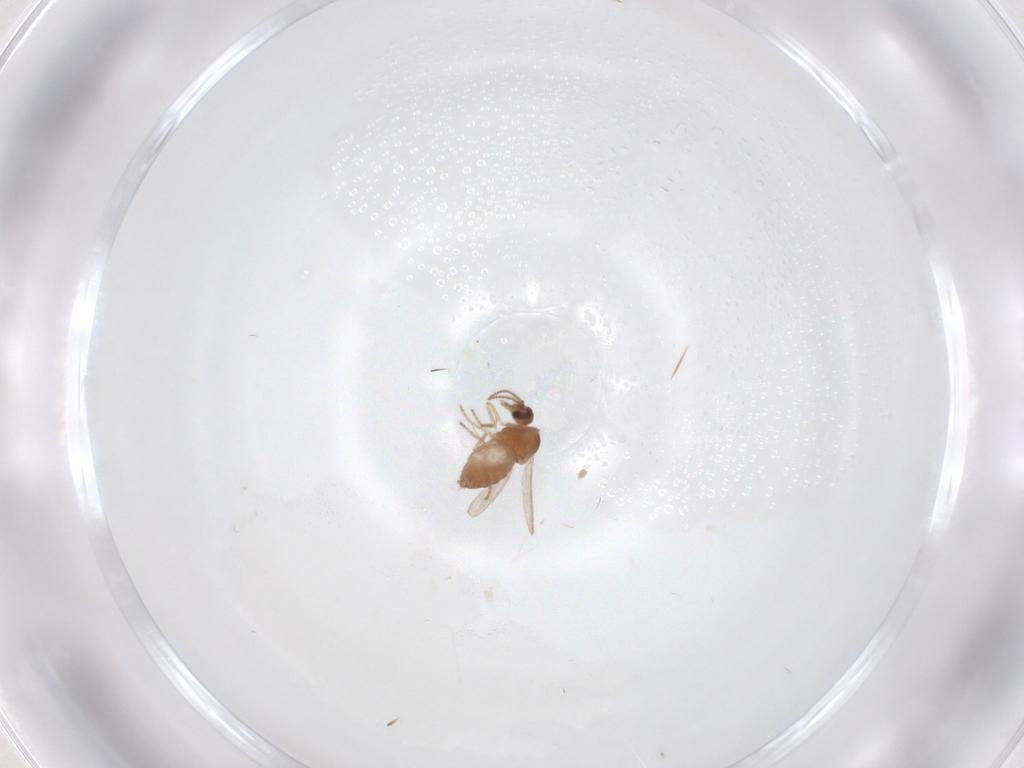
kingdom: Animalia
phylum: Arthropoda
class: Insecta
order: Diptera
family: Ceratopogonidae
